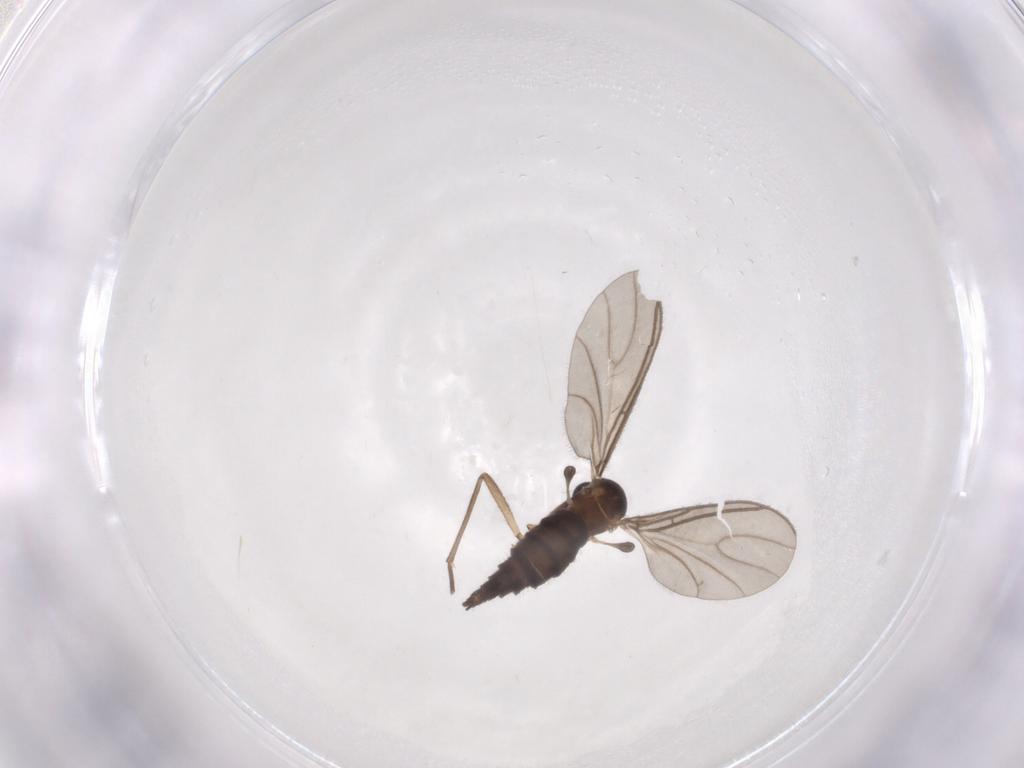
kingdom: Animalia
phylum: Arthropoda
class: Insecta
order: Diptera
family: Sciaridae
